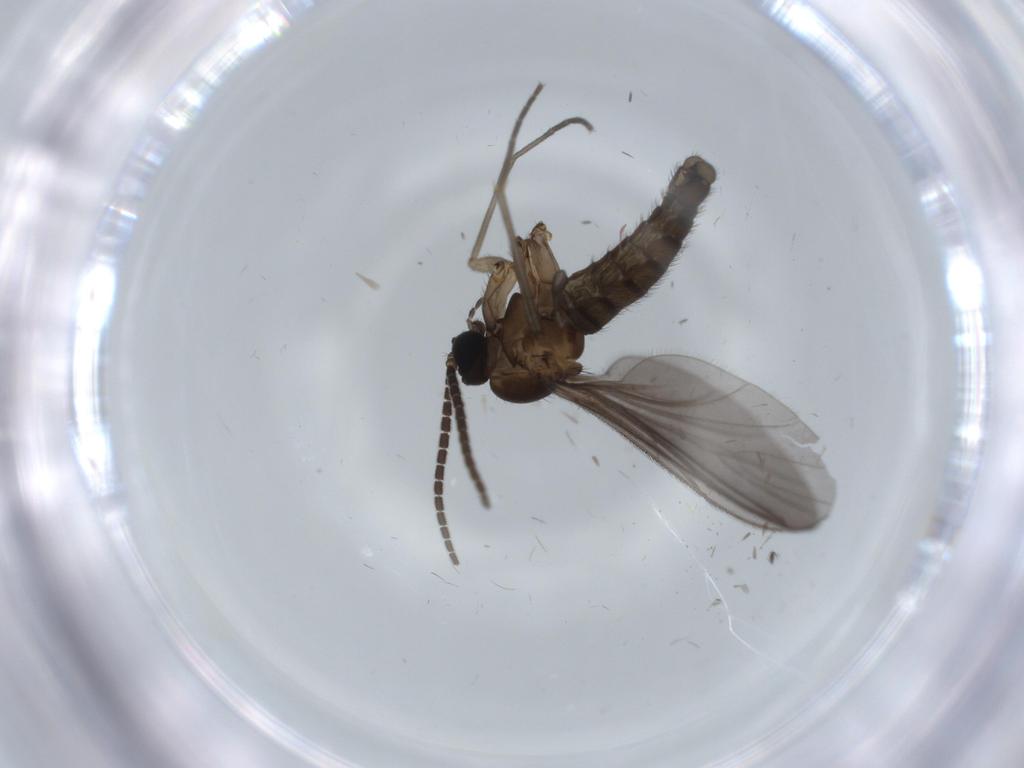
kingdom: Animalia
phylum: Arthropoda
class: Insecta
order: Diptera
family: Sciaridae
